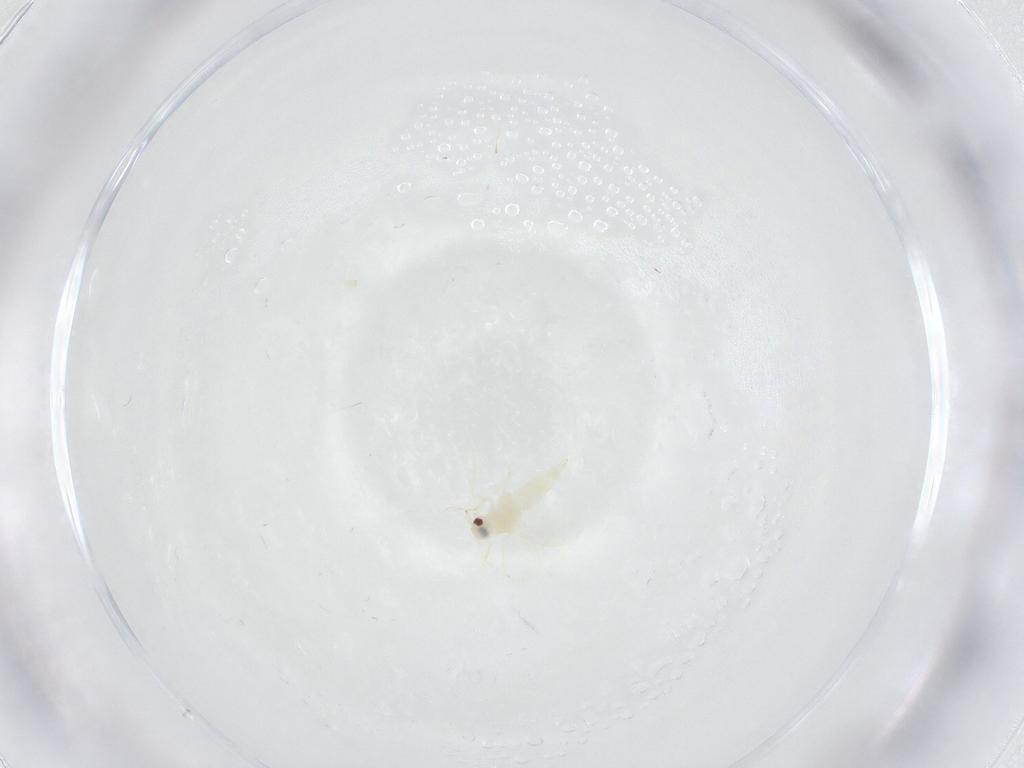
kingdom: Animalia
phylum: Arthropoda
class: Insecta
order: Hemiptera
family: Aleyrodidae
